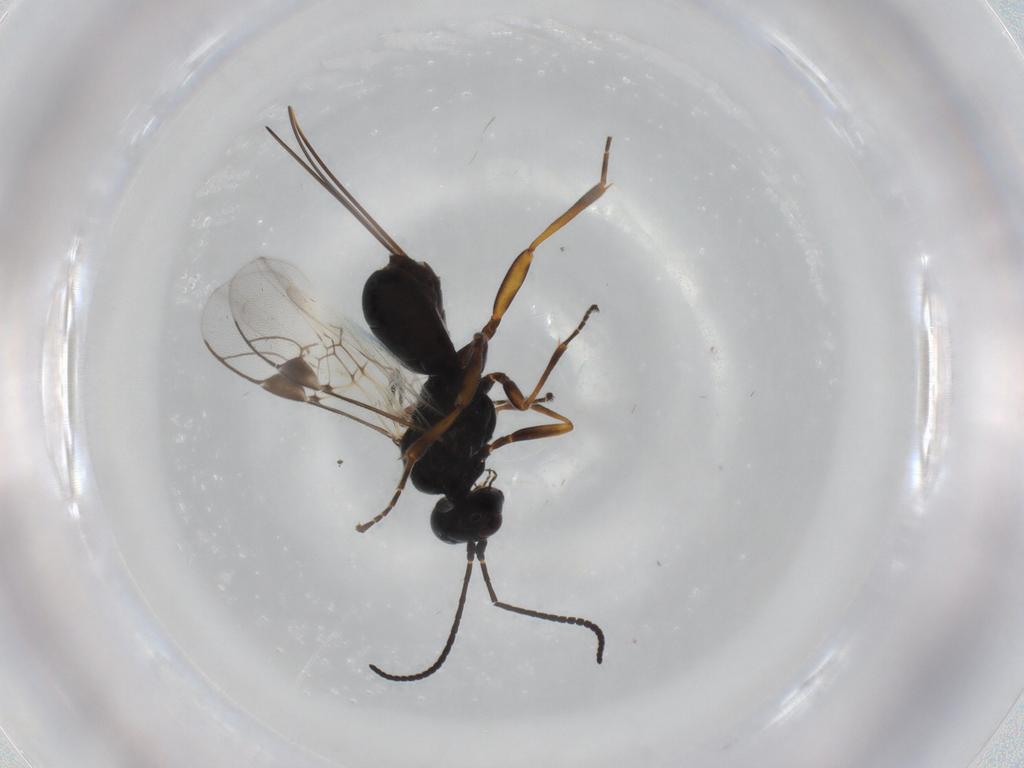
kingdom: Animalia
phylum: Arthropoda
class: Insecta
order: Hymenoptera
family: Braconidae
